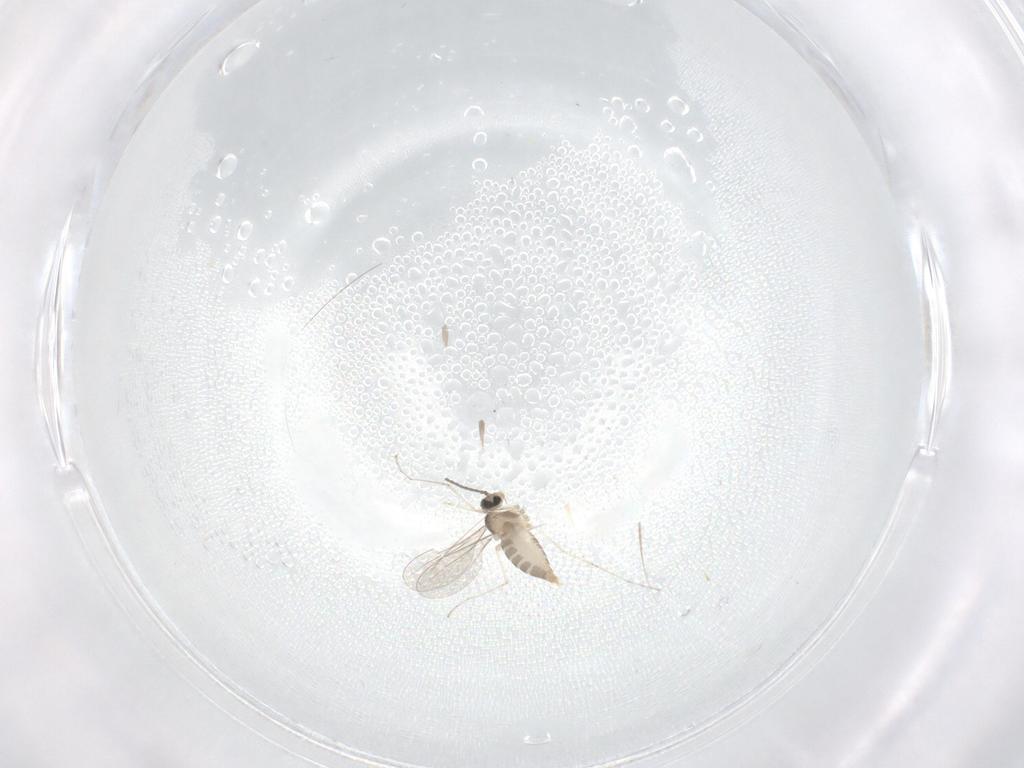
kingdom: Animalia
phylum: Arthropoda
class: Insecta
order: Diptera
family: Cecidomyiidae
